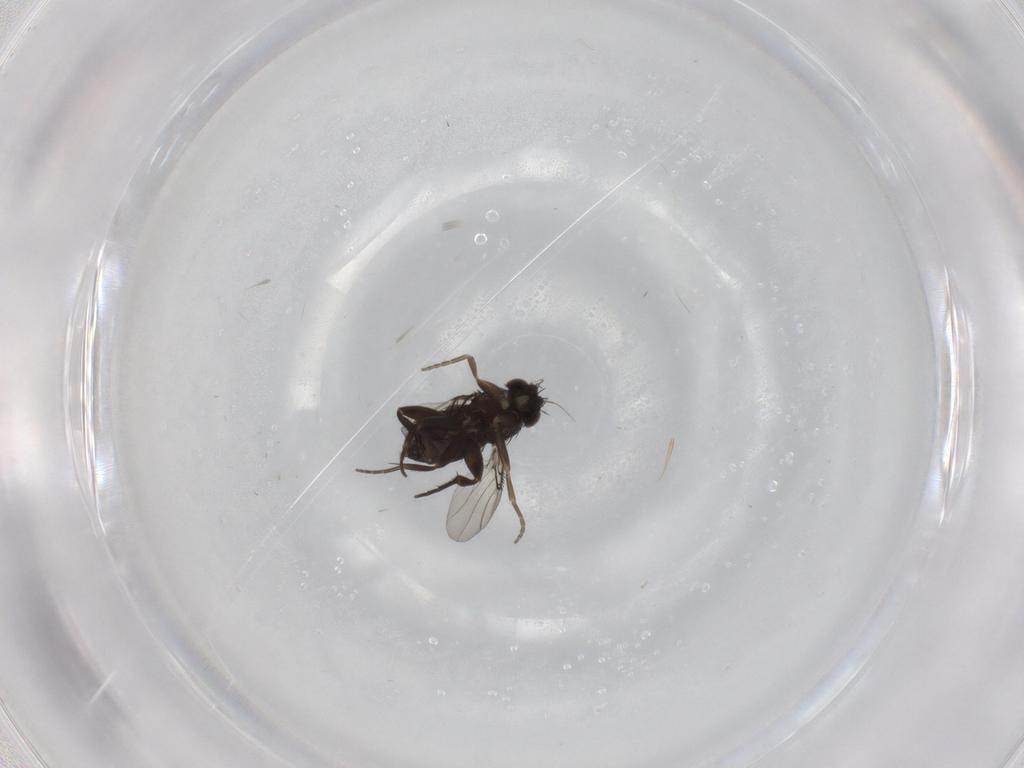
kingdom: Animalia
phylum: Arthropoda
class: Insecta
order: Diptera
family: Phoridae
